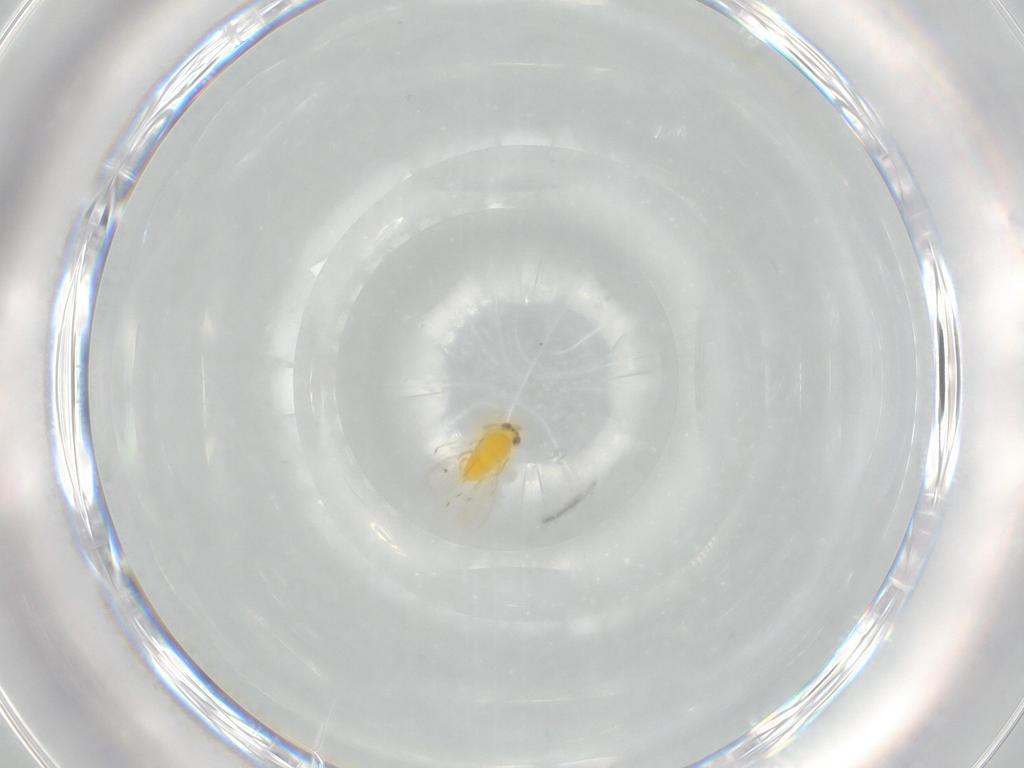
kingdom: Animalia
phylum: Arthropoda
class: Insecta
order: Hymenoptera
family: Aphelinidae
